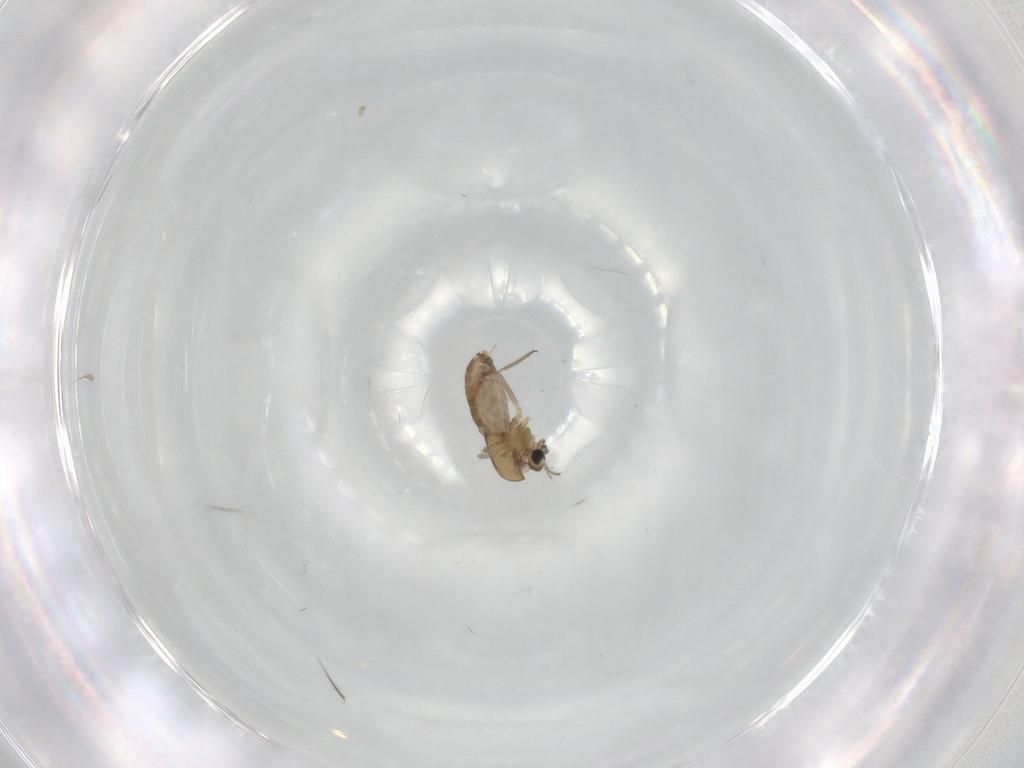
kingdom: Animalia
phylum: Arthropoda
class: Insecta
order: Diptera
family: Chironomidae
